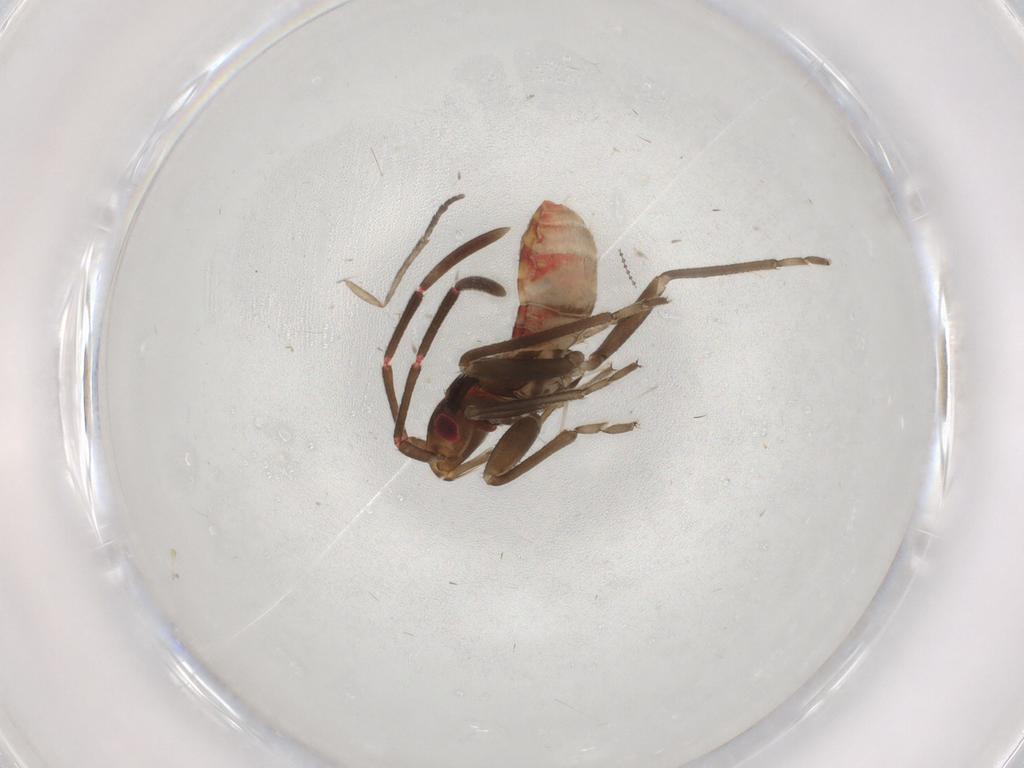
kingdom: Animalia
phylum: Arthropoda
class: Insecta
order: Hemiptera
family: Rhyparochromidae
